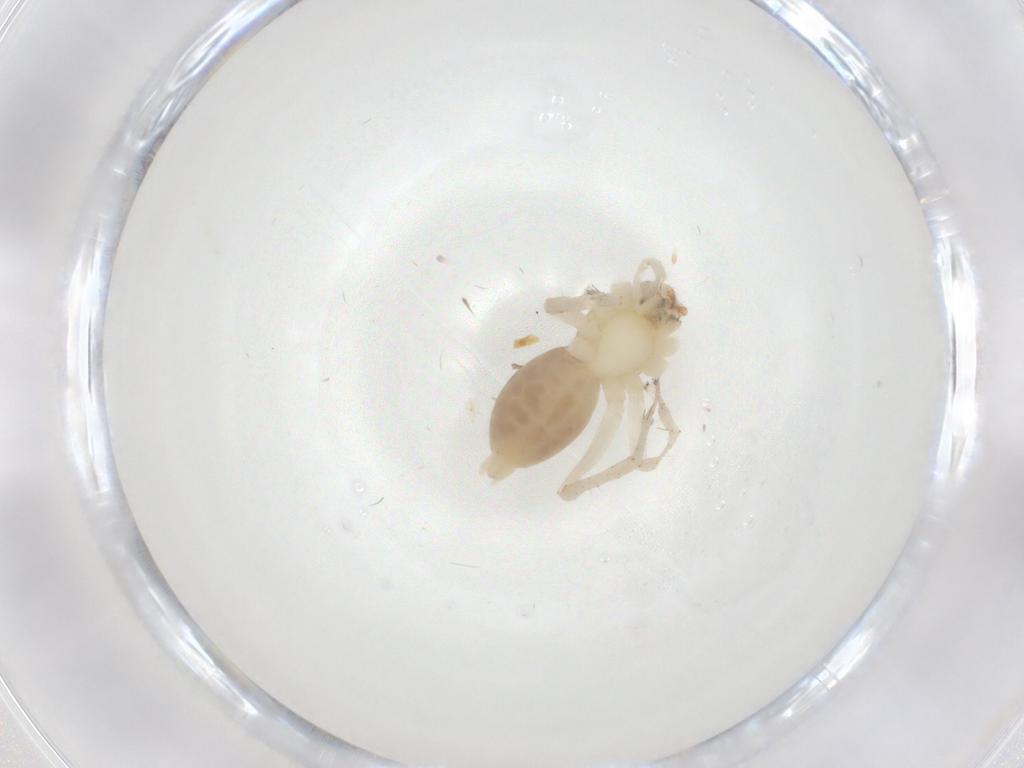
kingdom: Animalia
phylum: Arthropoda
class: Arachnida
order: Araneae
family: Anyphaenidae
